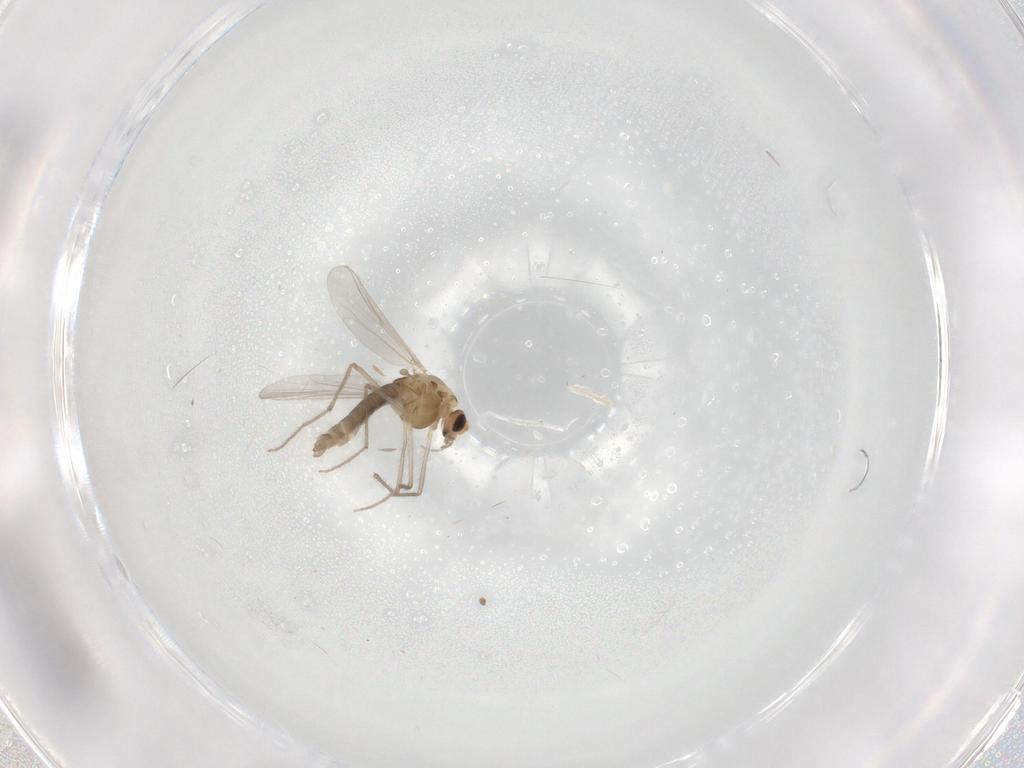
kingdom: Animalia
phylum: Arthropoda
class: Insecta
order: Diptera
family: Chironomidae
